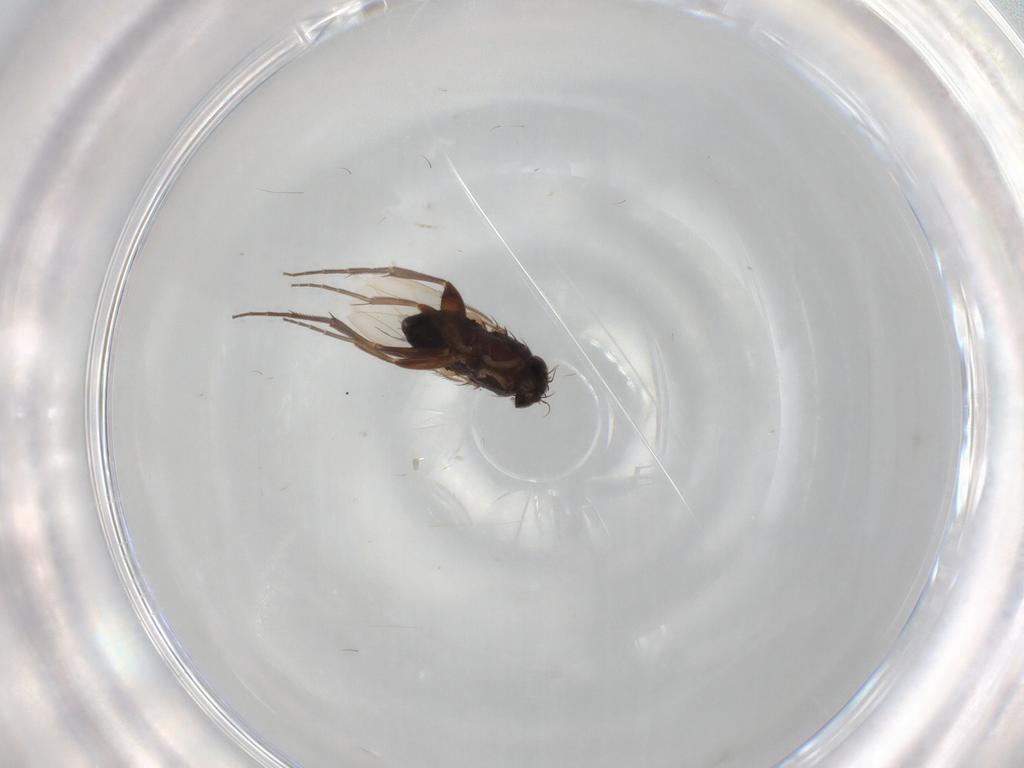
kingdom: Animalia
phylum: Arthropoda
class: Insecta
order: Diptera
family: Phoridae
